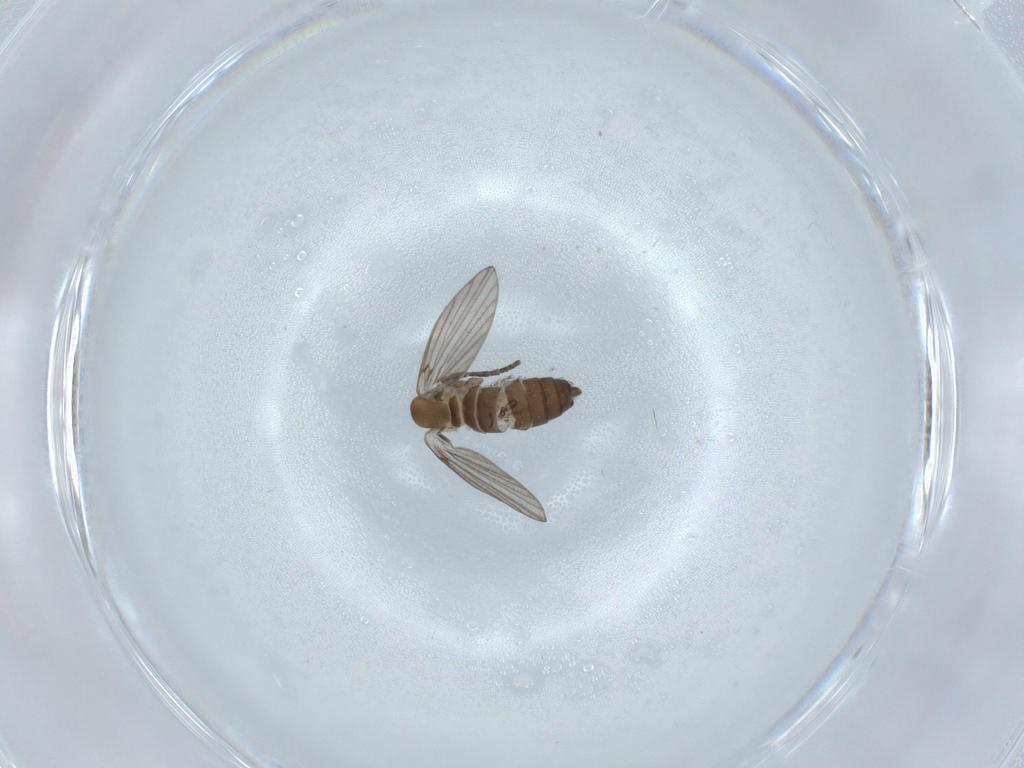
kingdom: Animalia
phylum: Arthropoda
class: Insecta
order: Diptera
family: Chironomidae
